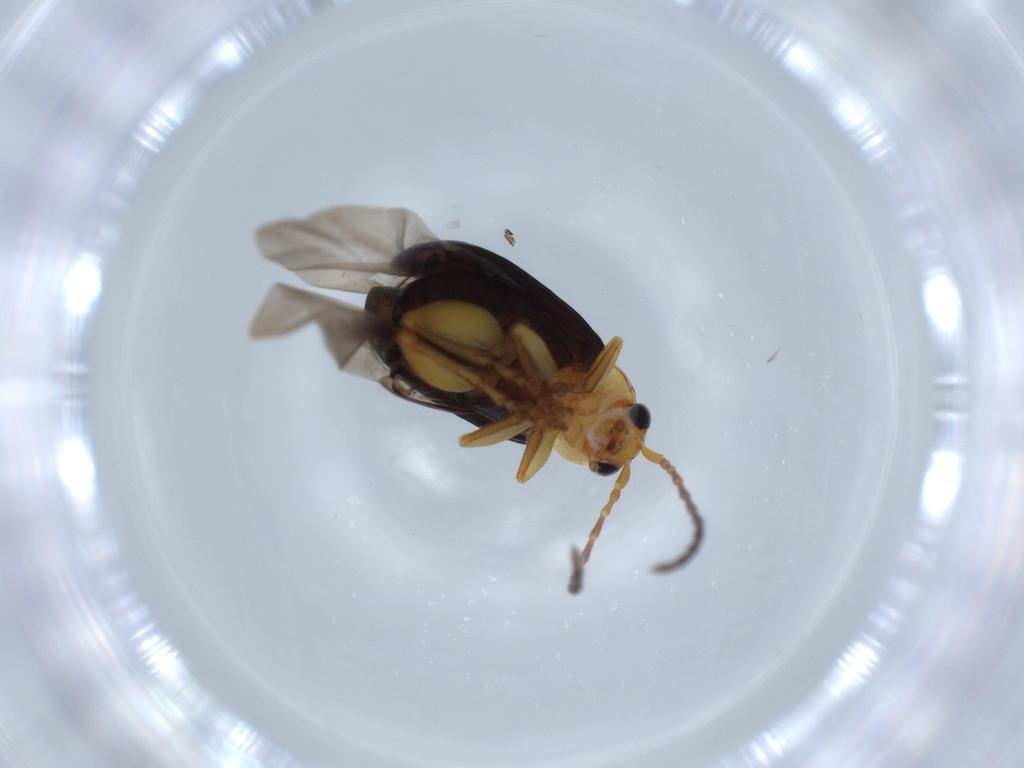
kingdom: Animalia
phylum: Arthropoda
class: Insecta
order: Coleoptera
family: Chrysomelidae
